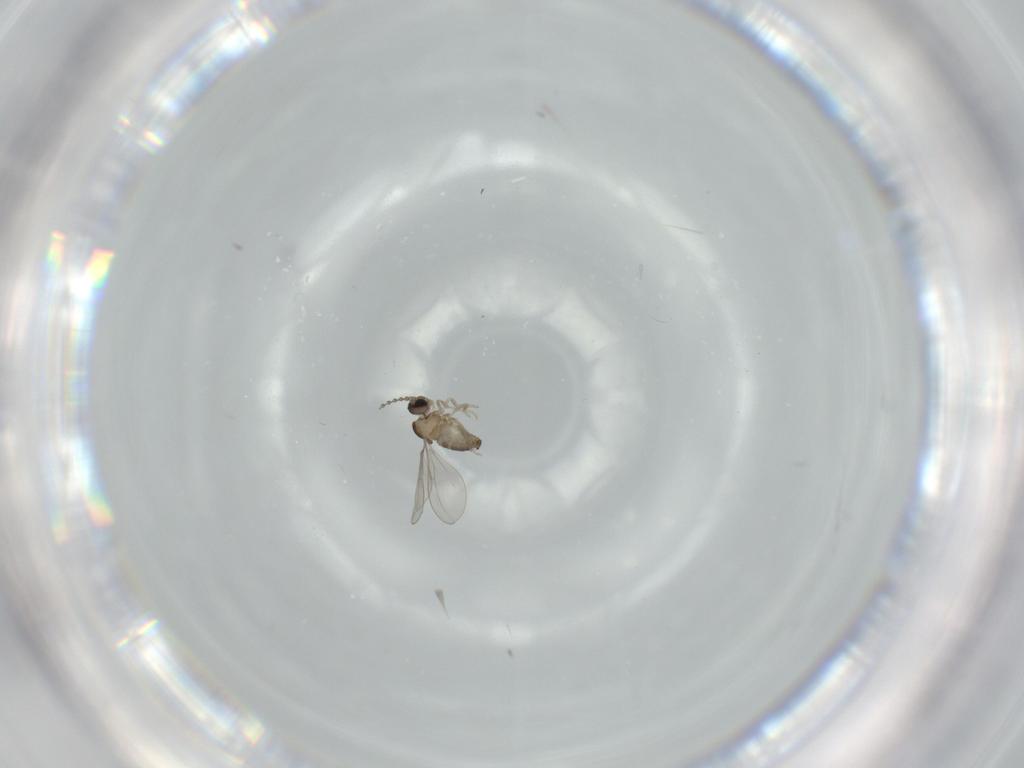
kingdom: Animalia
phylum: Arthropoda
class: Insecta
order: Diptera
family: Cecidomyiidae
